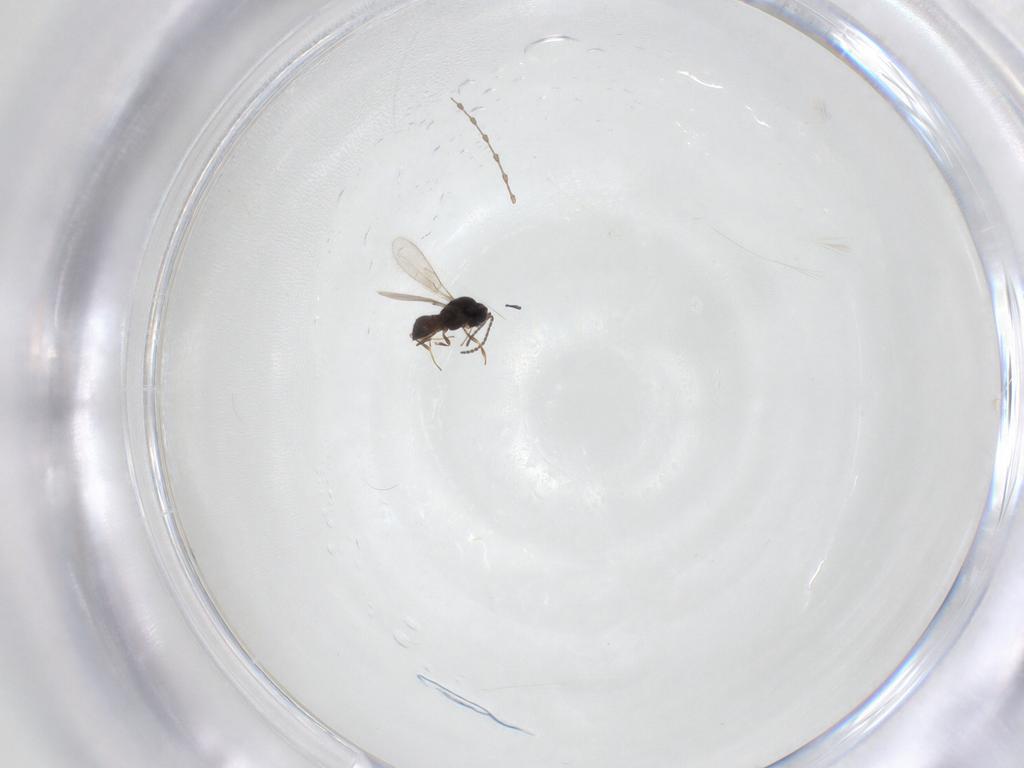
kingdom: Animalia
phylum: Arthropoda
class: Insecta
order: Hymenoptera
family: Scelionidae
